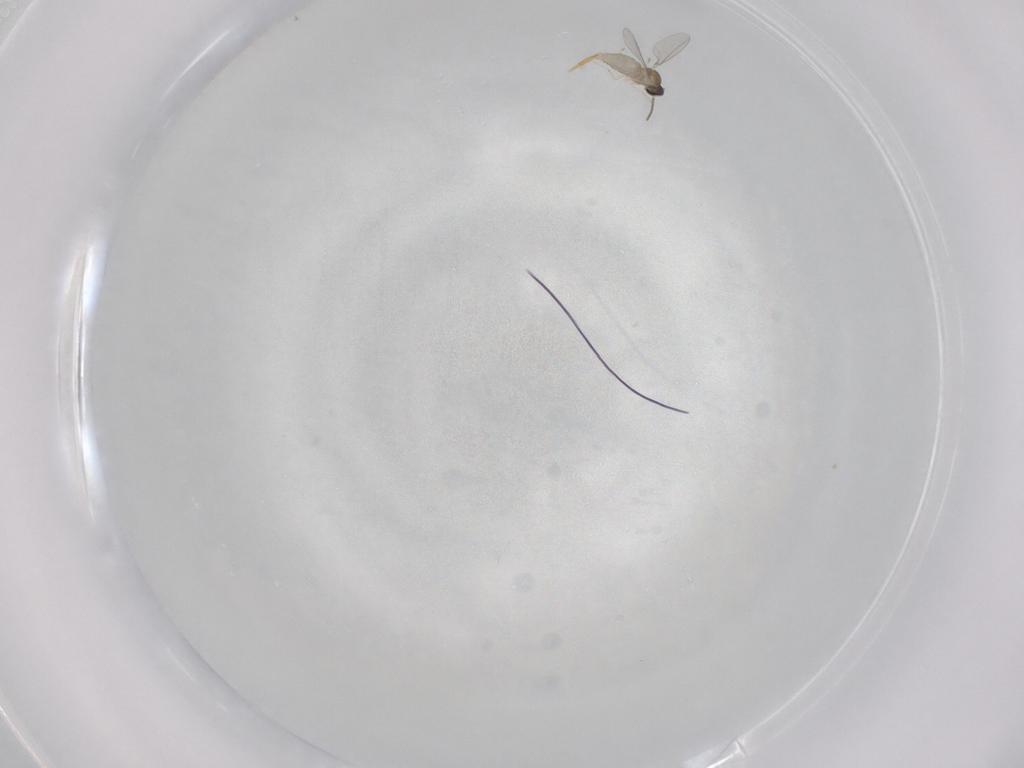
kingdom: Animalia
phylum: Arthropoda
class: Insecta
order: Diptera
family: Cecidomyiidae
